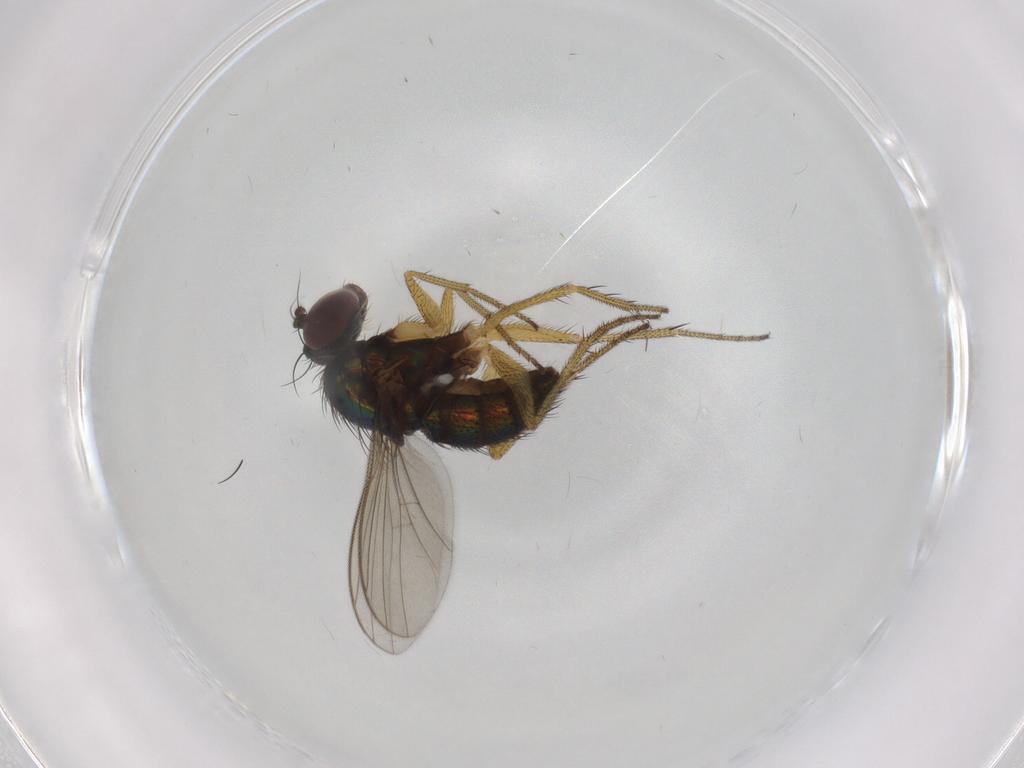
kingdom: Animalia
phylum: Arthropoda
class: Insecta
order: Diptera
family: Dolichopodidae
